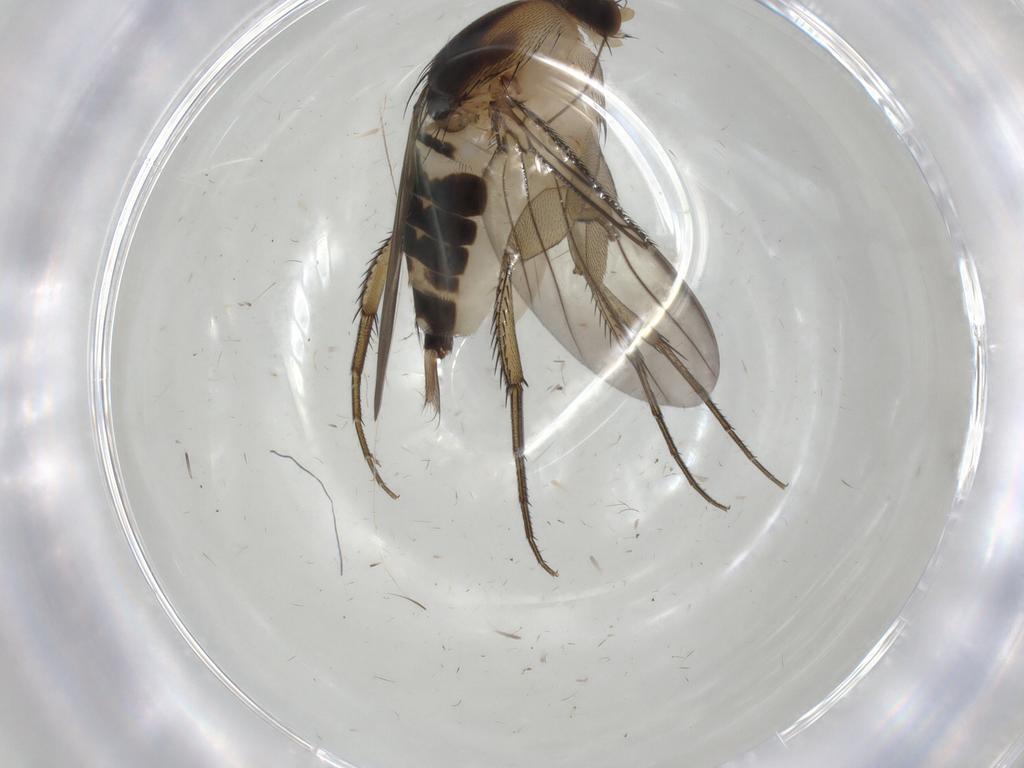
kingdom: Animalia
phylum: Arthropoda
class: Insecta
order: Diptera
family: Phoridae
